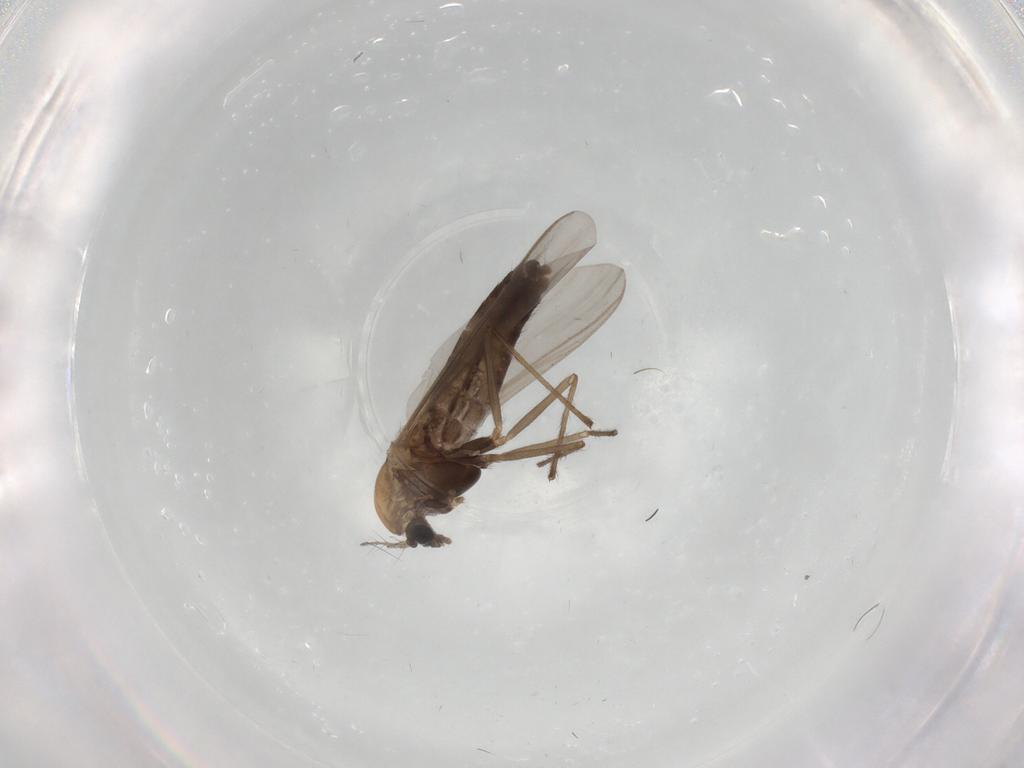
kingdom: Animalia
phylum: Arthropoda
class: Insecta
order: Diptera
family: Chironomidae
